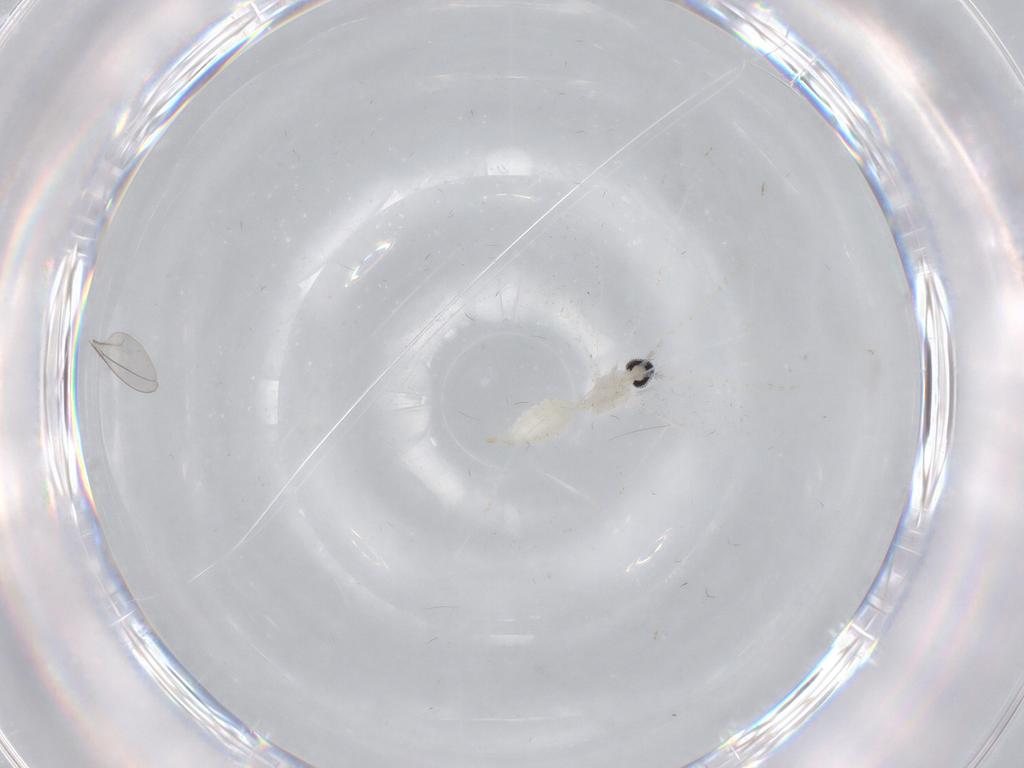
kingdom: Animalia
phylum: Arthropoda
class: Insecta
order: Diptera
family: Cecidomyiidae
